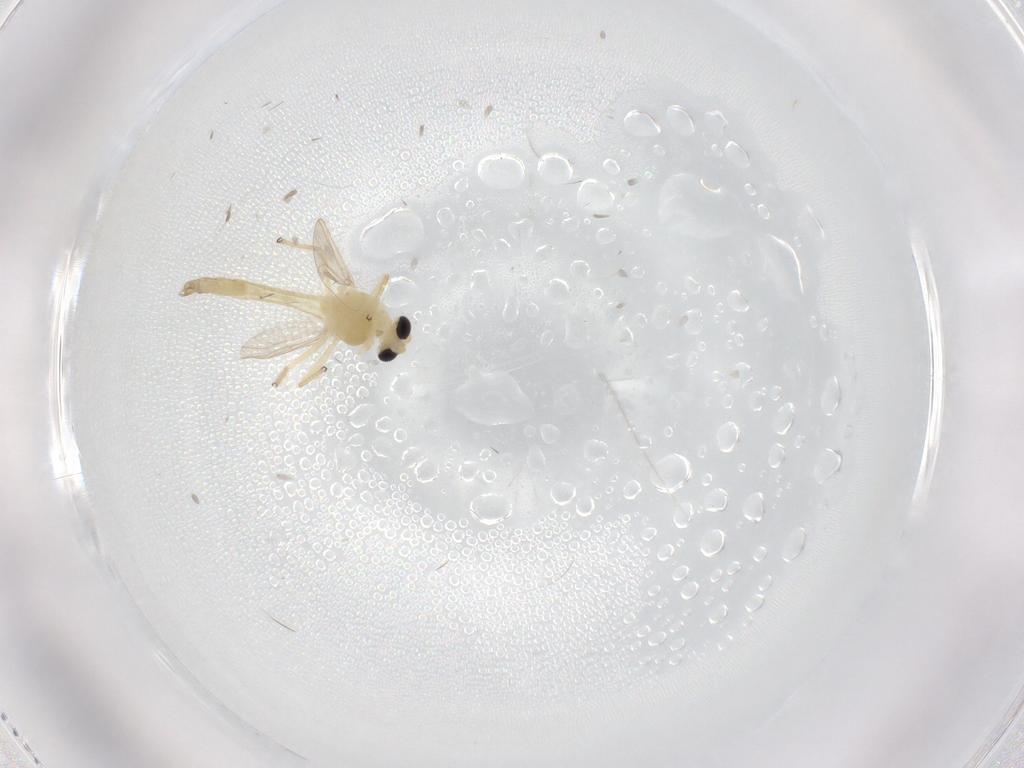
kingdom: Animalia
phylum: Arthropoda
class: Insecta
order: Diptera
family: Chironomidae
